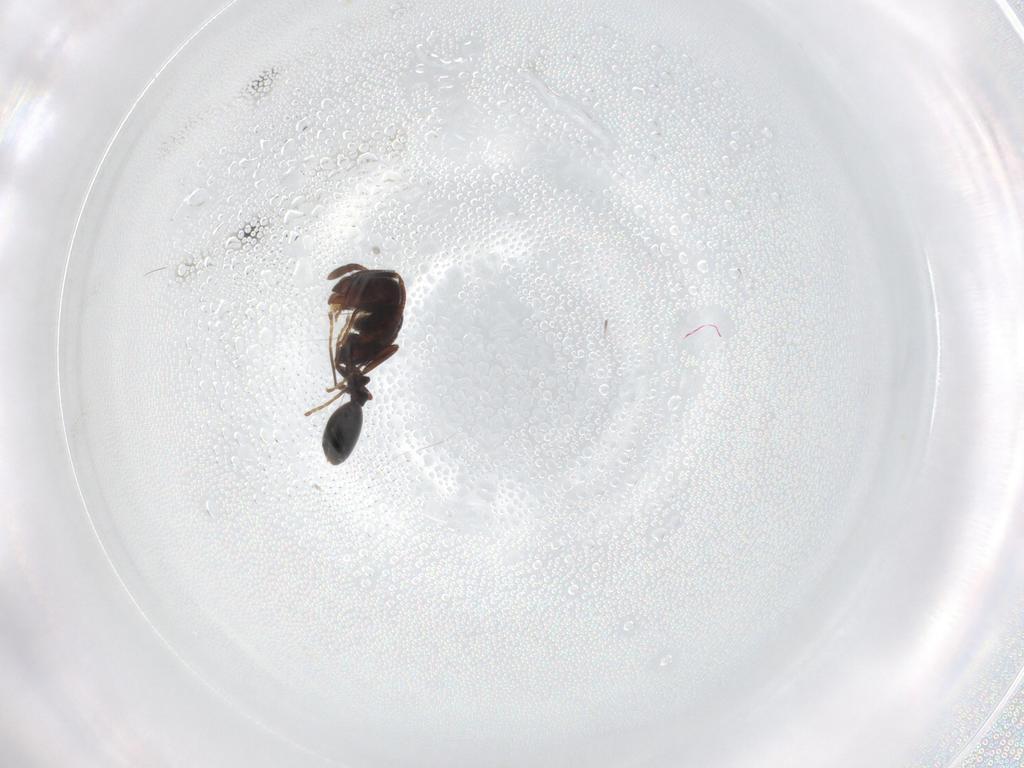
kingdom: Animalia
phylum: Arthropoda
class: Insecta
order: Hymenoptera
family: Formicidae
